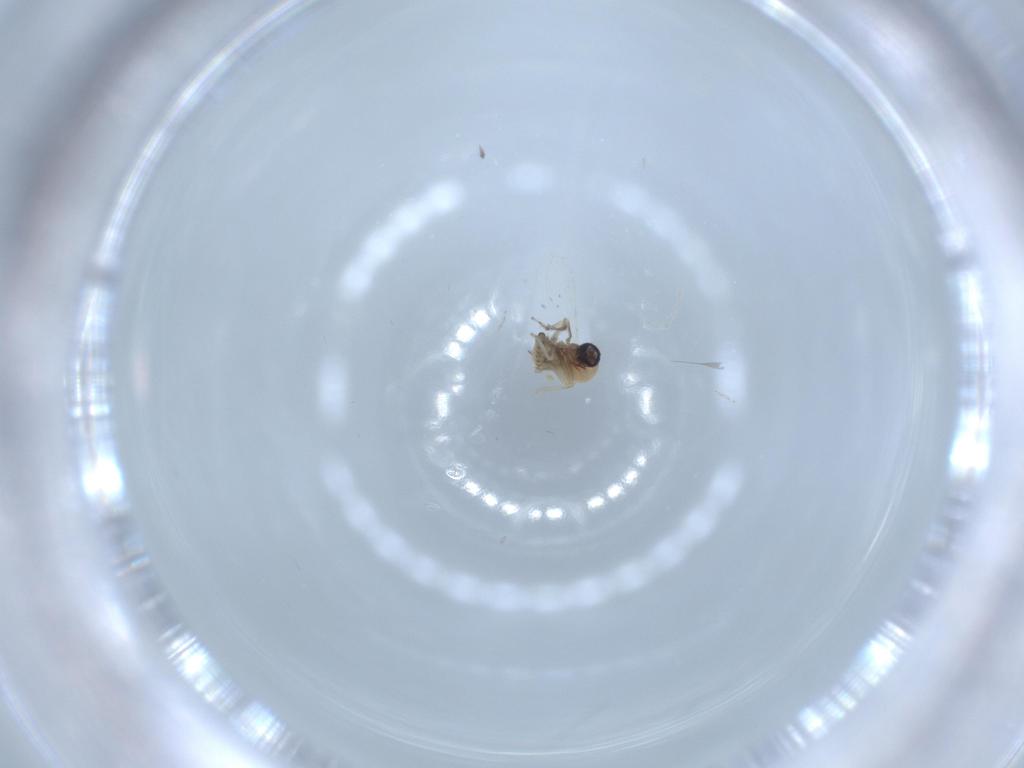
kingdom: Animalia
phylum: Arthropoda
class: Insecta
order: Diptera
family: Ceratopogonidae
